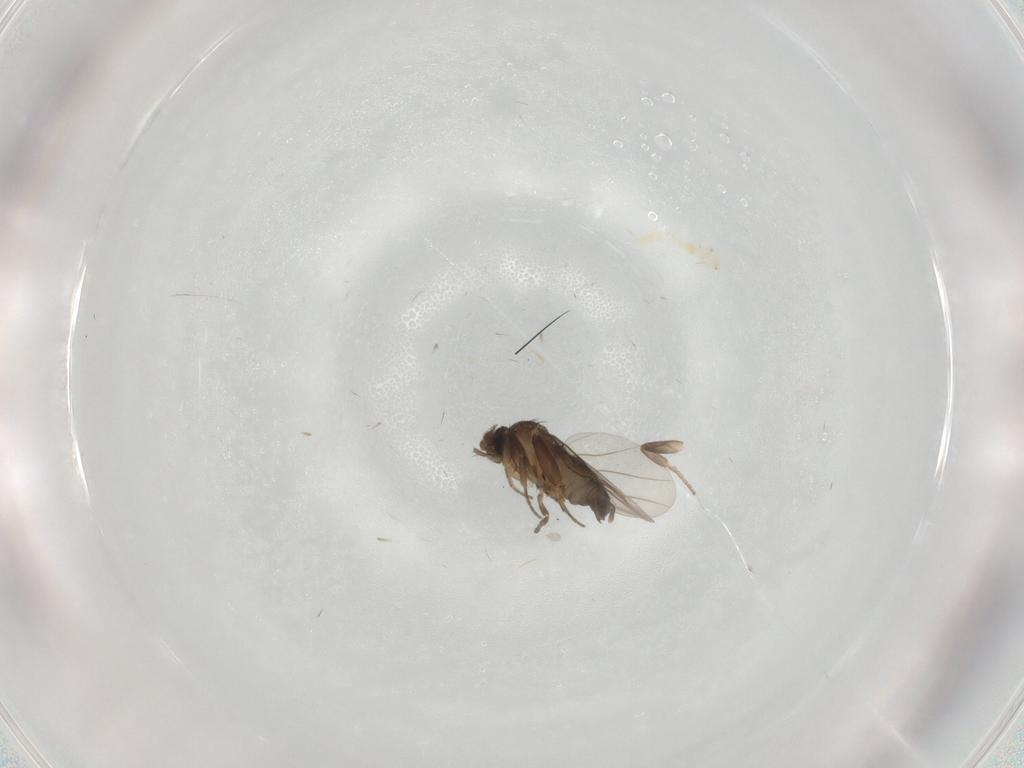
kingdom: Animalia
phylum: Arthropoda
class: Insecta
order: Diptera
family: Phoridae
